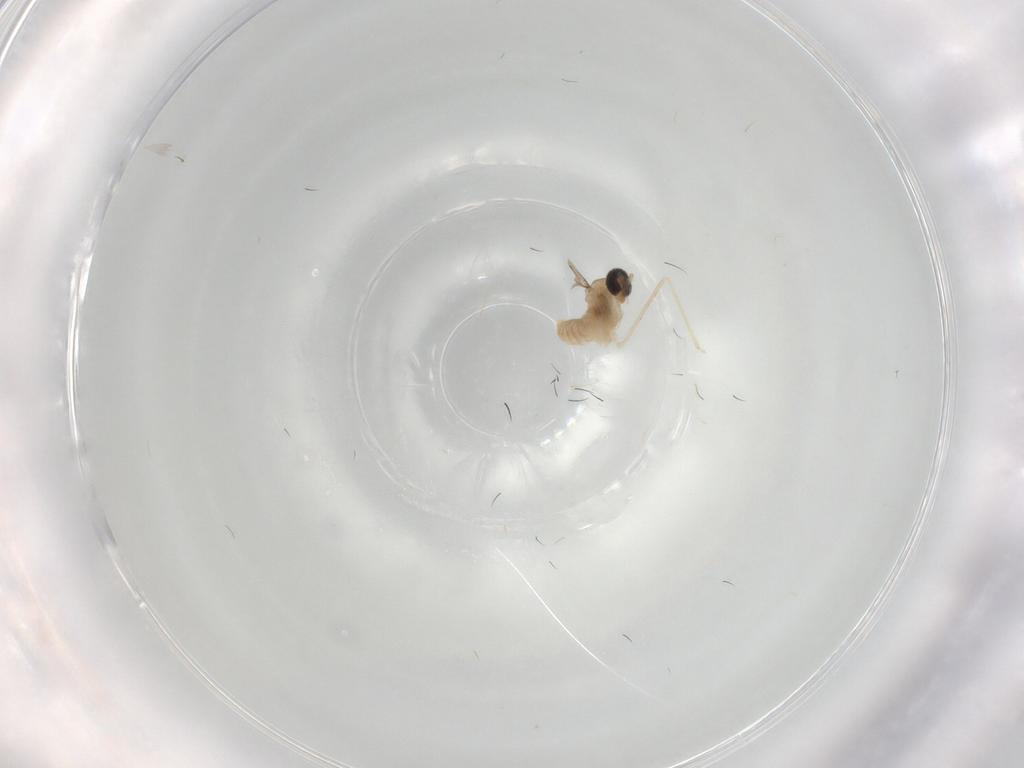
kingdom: Animalia
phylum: Arthropoda
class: Insecta
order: Diptera
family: Cecidomyiidae
